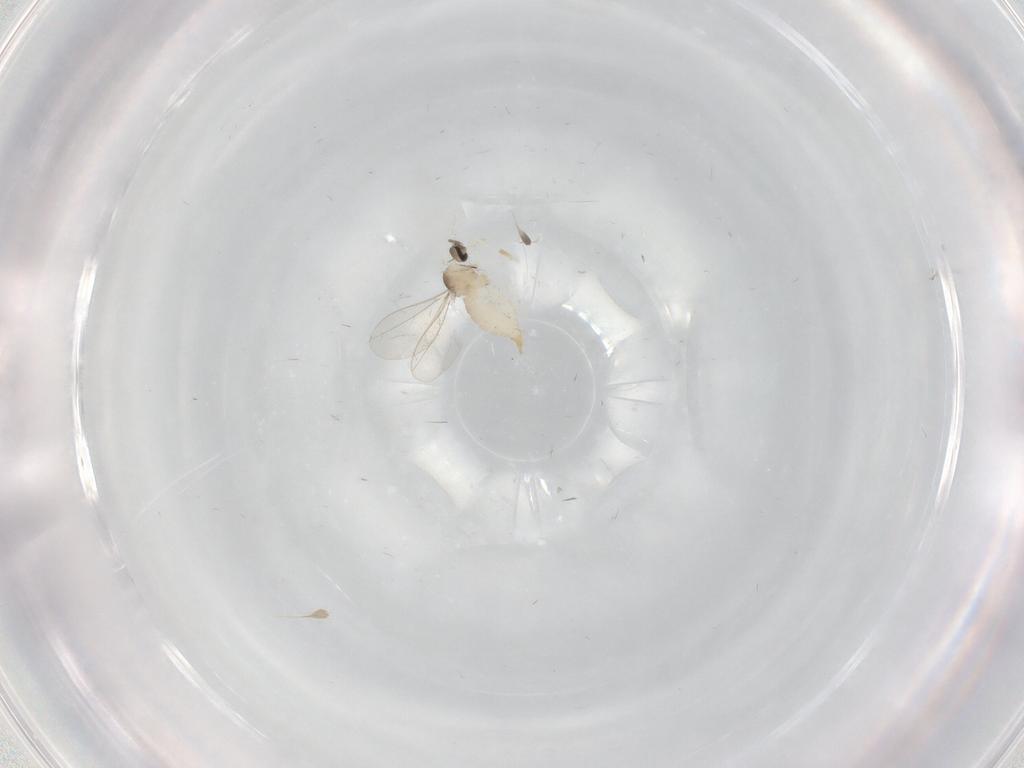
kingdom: Animalia
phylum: Arthropoda
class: Insecta
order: Diptera
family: Cecidomyiidae
